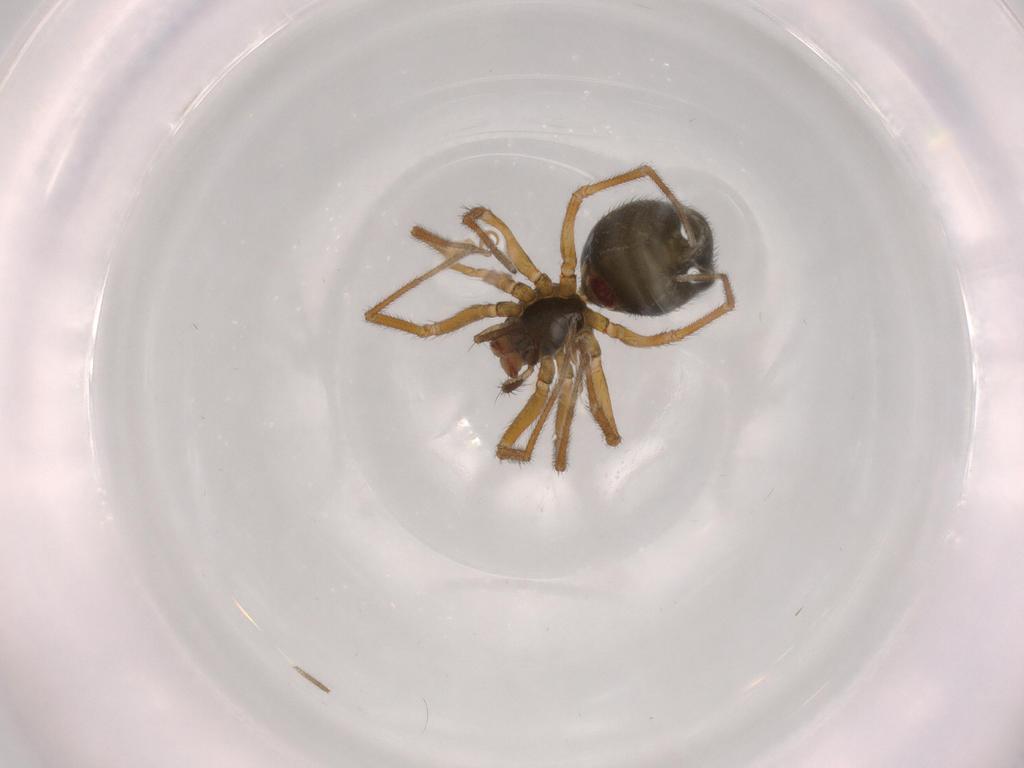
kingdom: Animalia
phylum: Arthropoda
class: Arachnida
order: Araneae
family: Linyphiidae
